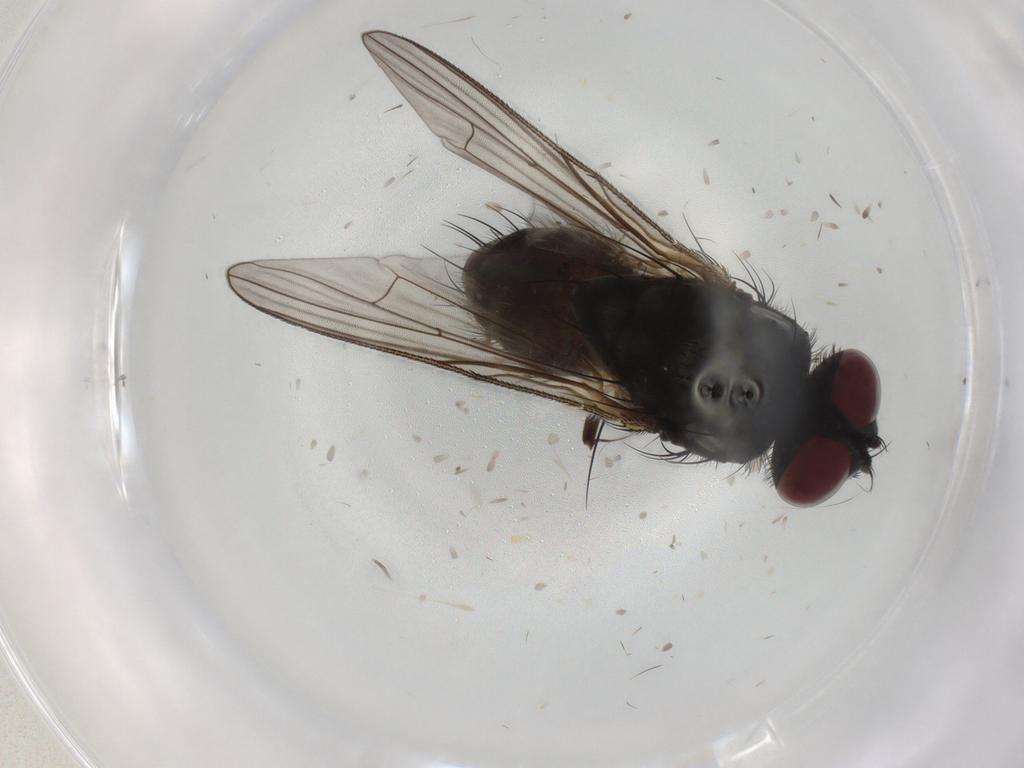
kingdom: Animalia
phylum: Arthropoda
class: Insecta
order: Diptera
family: Muscidae
